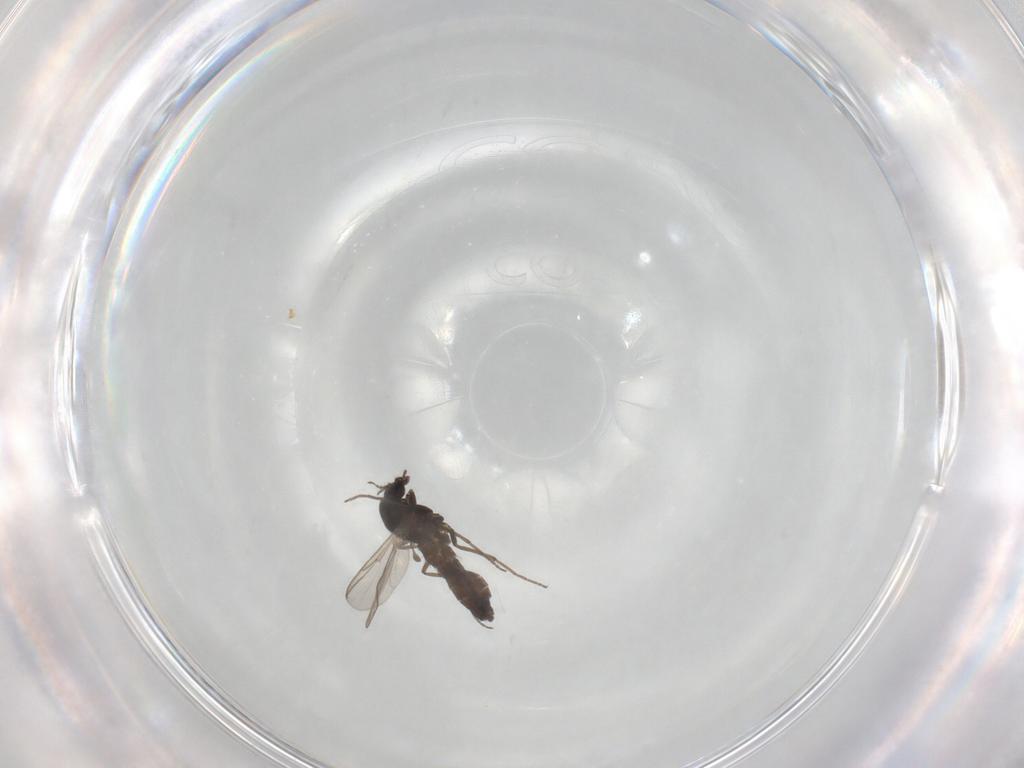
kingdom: Animalia
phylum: Arthropoda
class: Insecta
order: Diptera
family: Chironomidae
